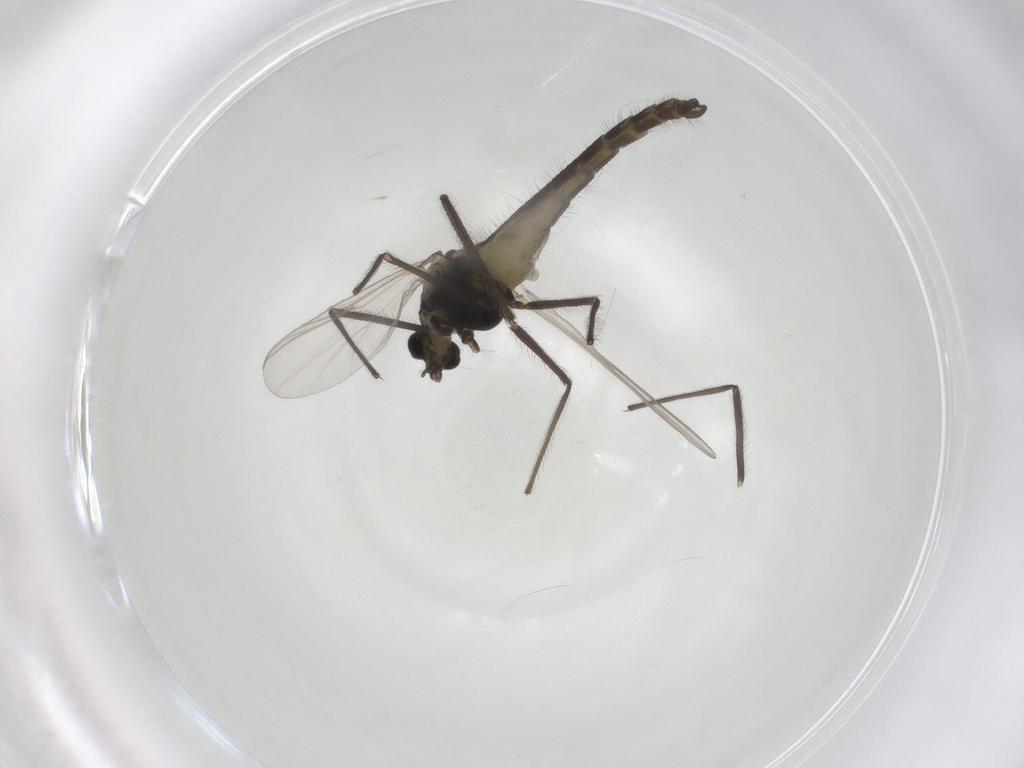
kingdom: Animalia
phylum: Arthropoda
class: Insecta
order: Diptera
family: Chironomidae
